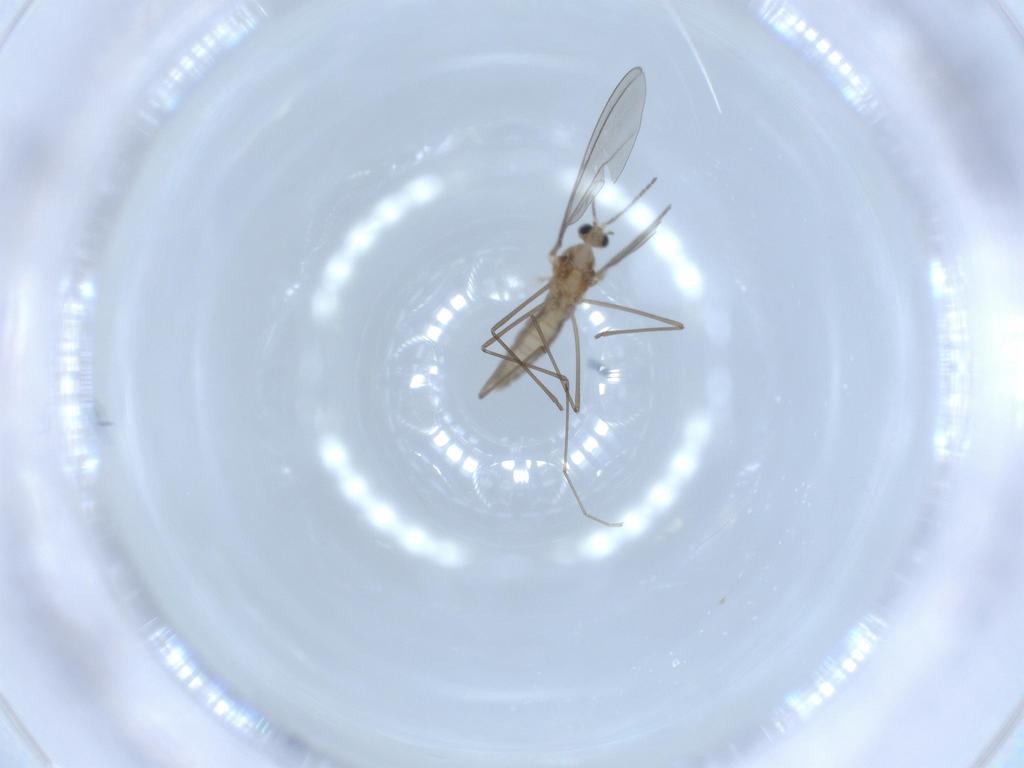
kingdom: Animalia
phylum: Arthropoda
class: Insecta
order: Diptera
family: Cecidomyiidae
